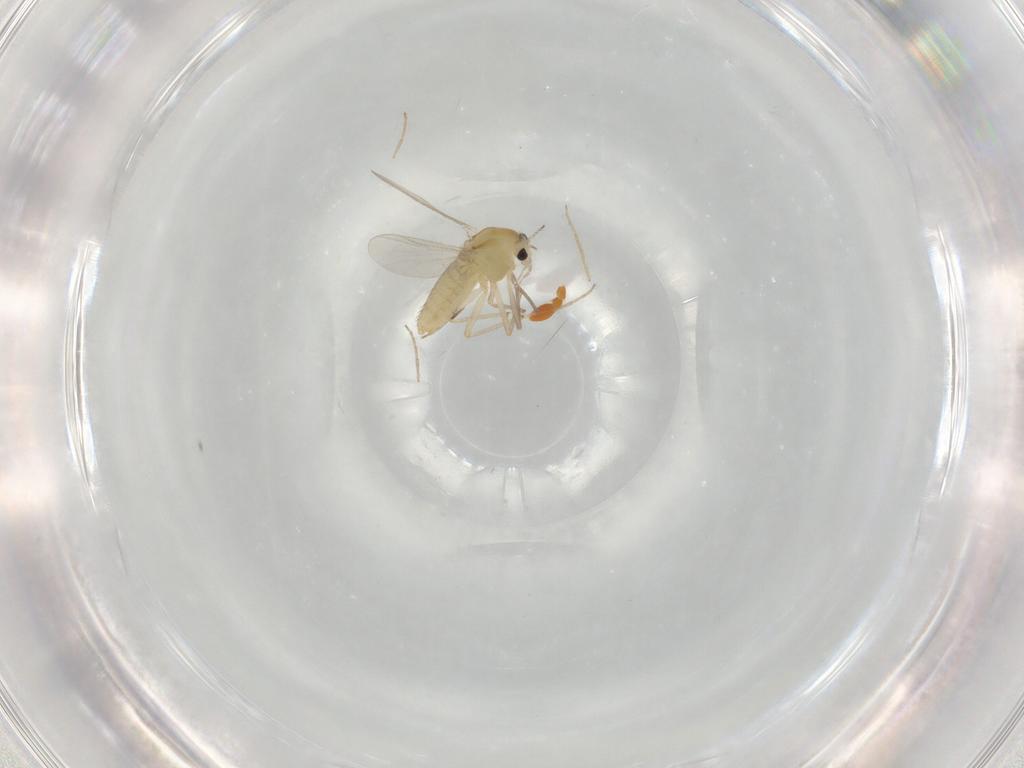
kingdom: Animalia
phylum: Arthropoda
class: Insecta
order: Diptera
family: Chironomidae
